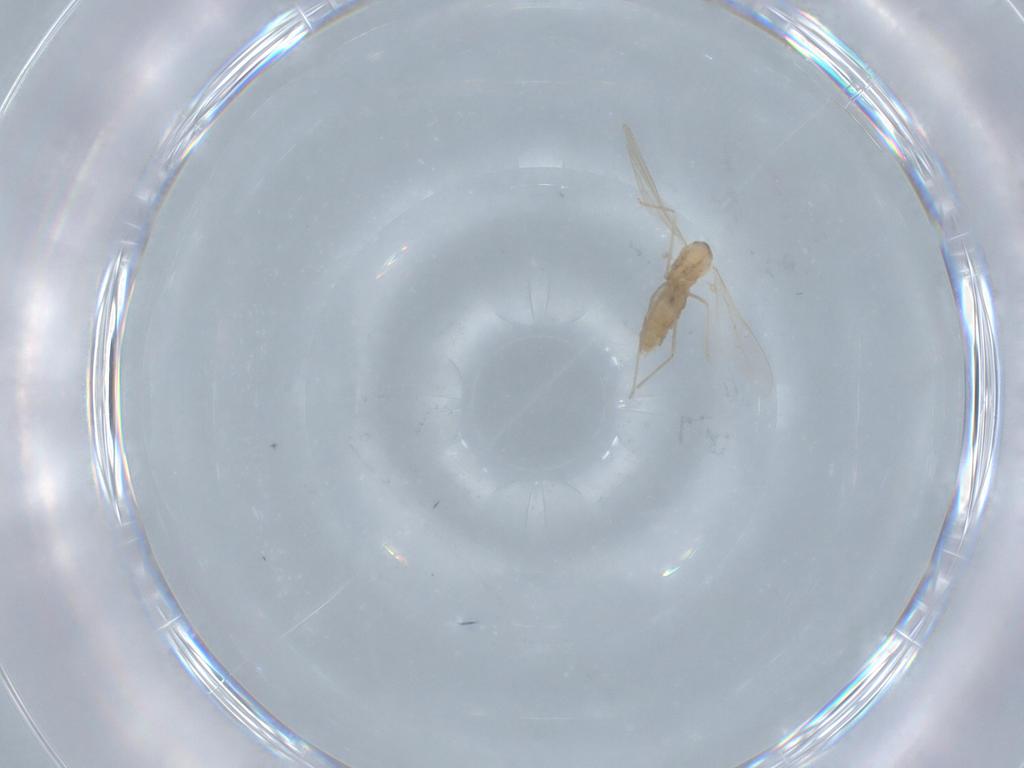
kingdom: Animalia
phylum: Arthropoda
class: Insecta
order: Diptera
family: Cecidomyiidae
